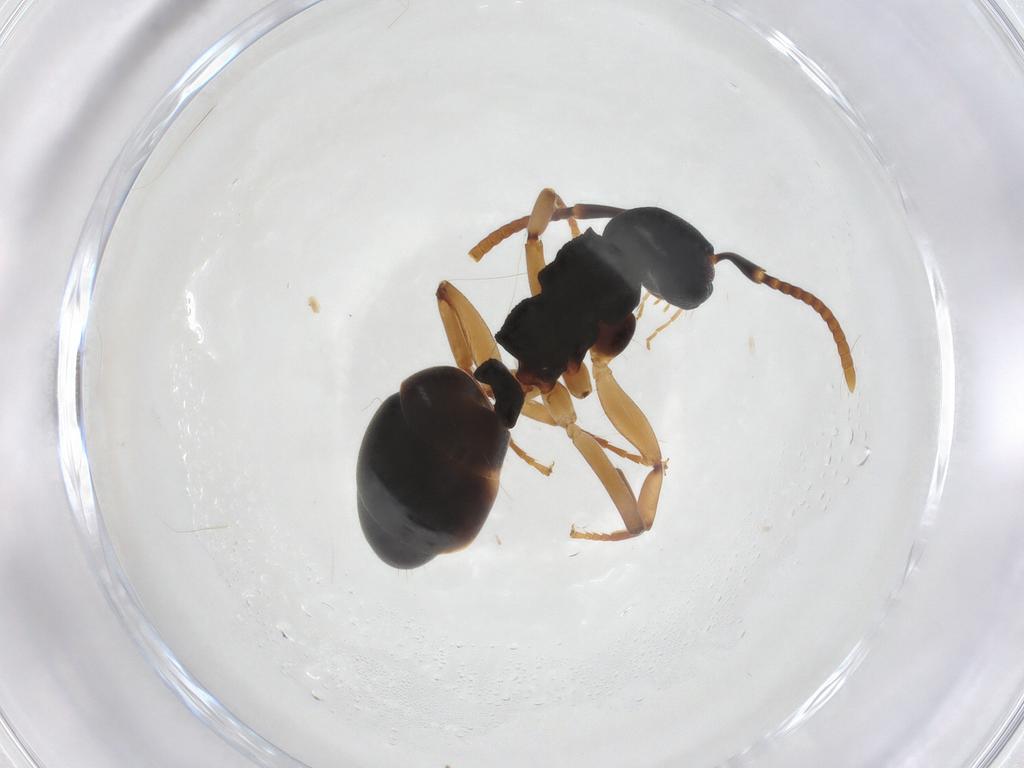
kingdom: Animalia
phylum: Arthropoda
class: Insecta
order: Hymenoptera
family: Formicidae
